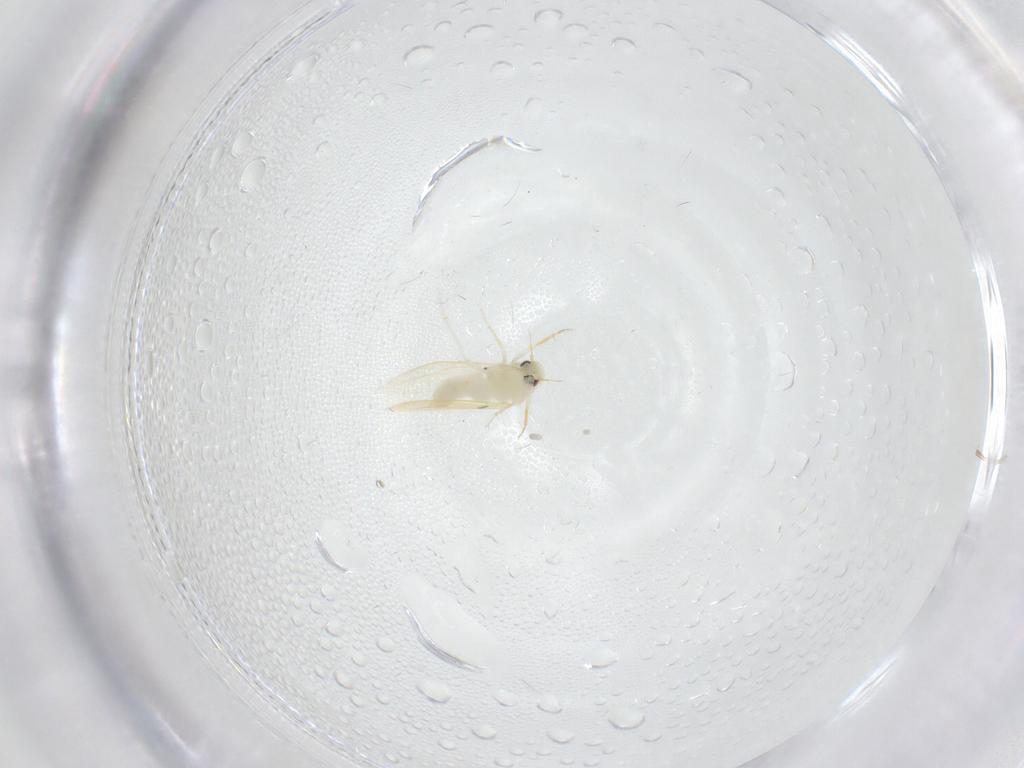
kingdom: Animalia
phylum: Arthropoda
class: Insecta
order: Hemiptera
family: Aleyrodidae
